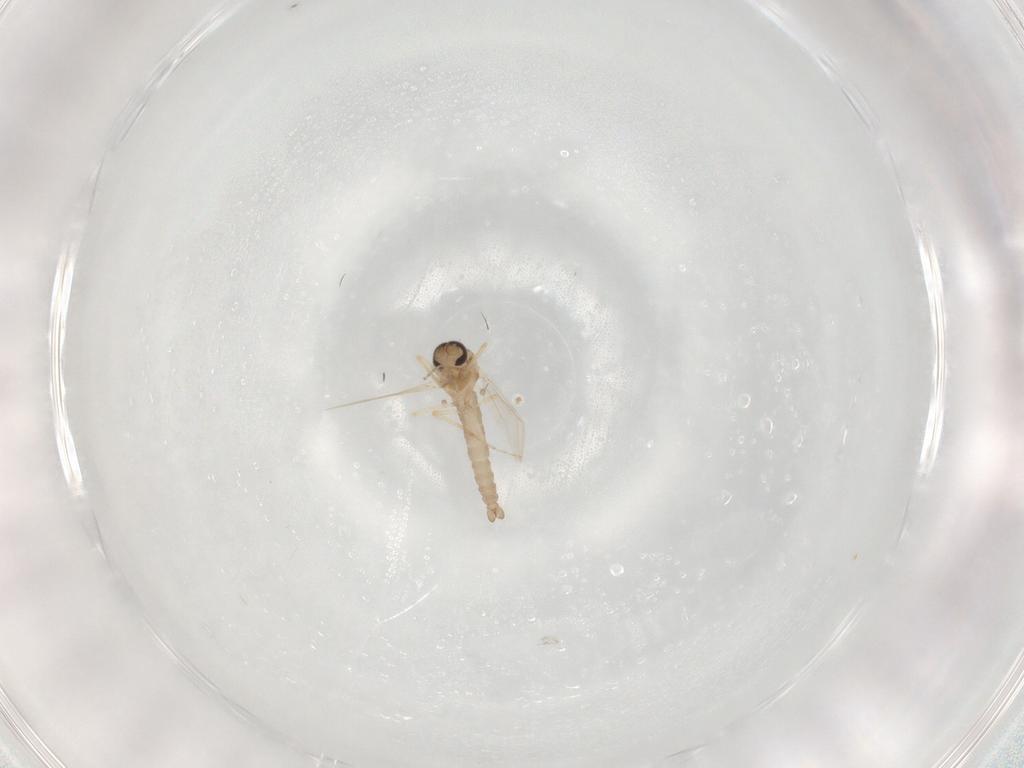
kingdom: Animalia
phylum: Arthropoda
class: Insecta
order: Diptera
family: Ceratopogonidae
